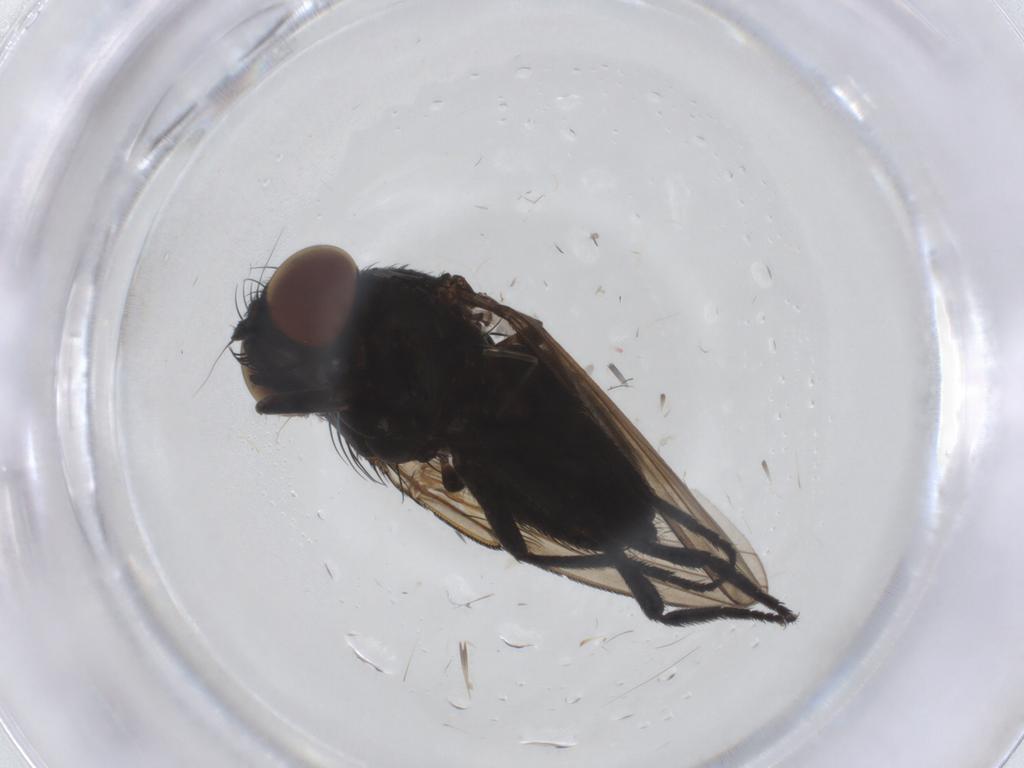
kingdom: Animalia
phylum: Arthropoda
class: Insecta
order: Diptera
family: Milichiidae
